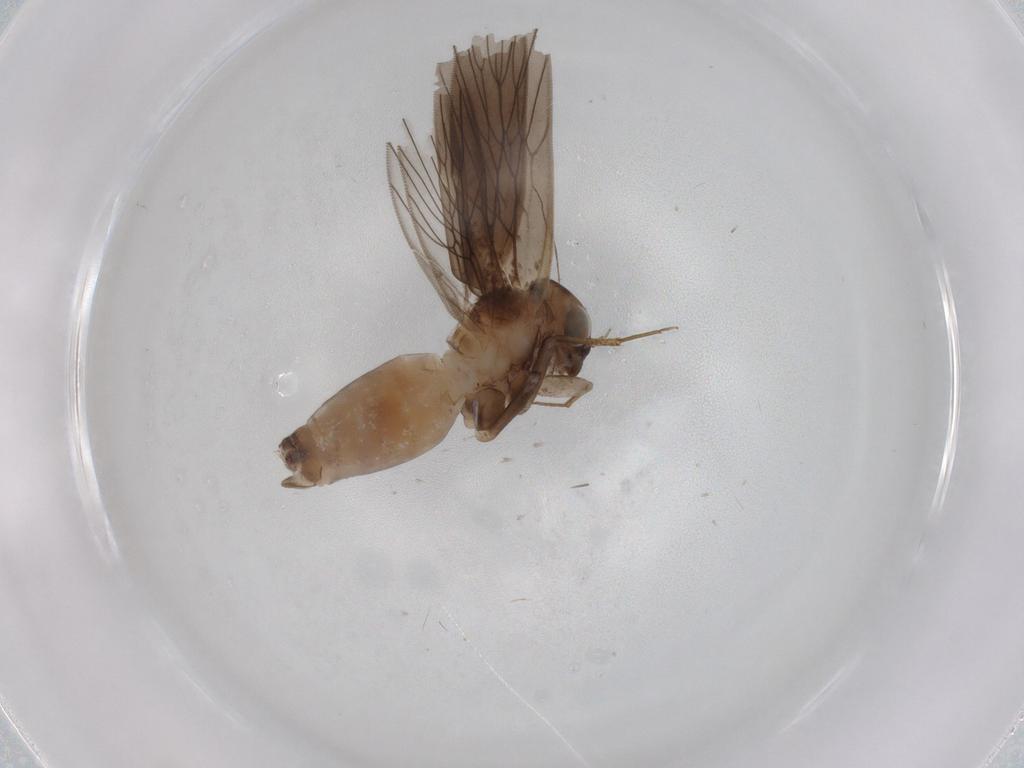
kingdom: Animalia
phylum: Arthropoda
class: Insecta
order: Psocodea
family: Lepidopsocidae
